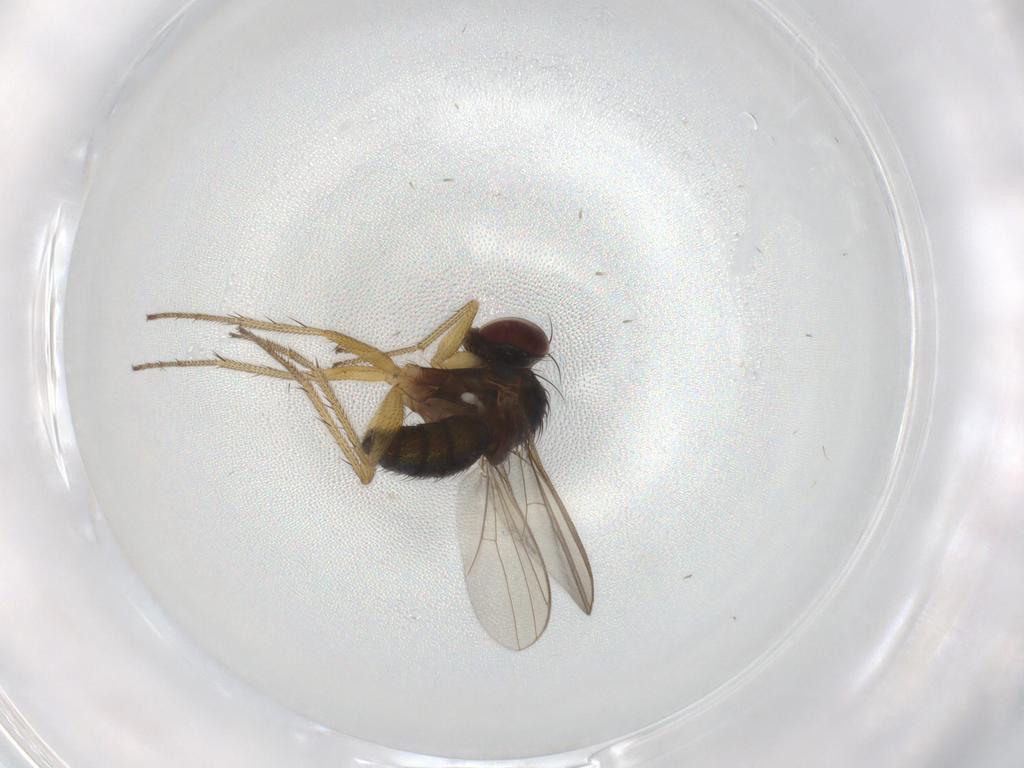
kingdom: Animalia
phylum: Arthropoda
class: Insecta
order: Diptera
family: Dolichopodidae
